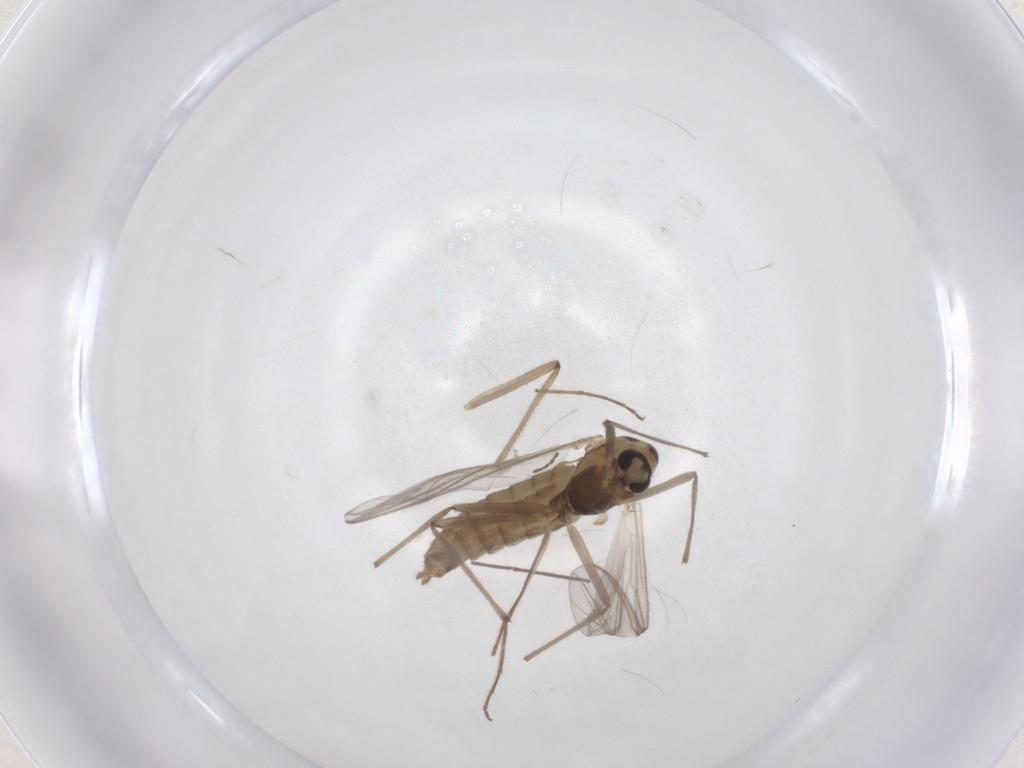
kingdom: Animalia
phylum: Arthropoda
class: Insecta
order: Diptera
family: Chironomidae
